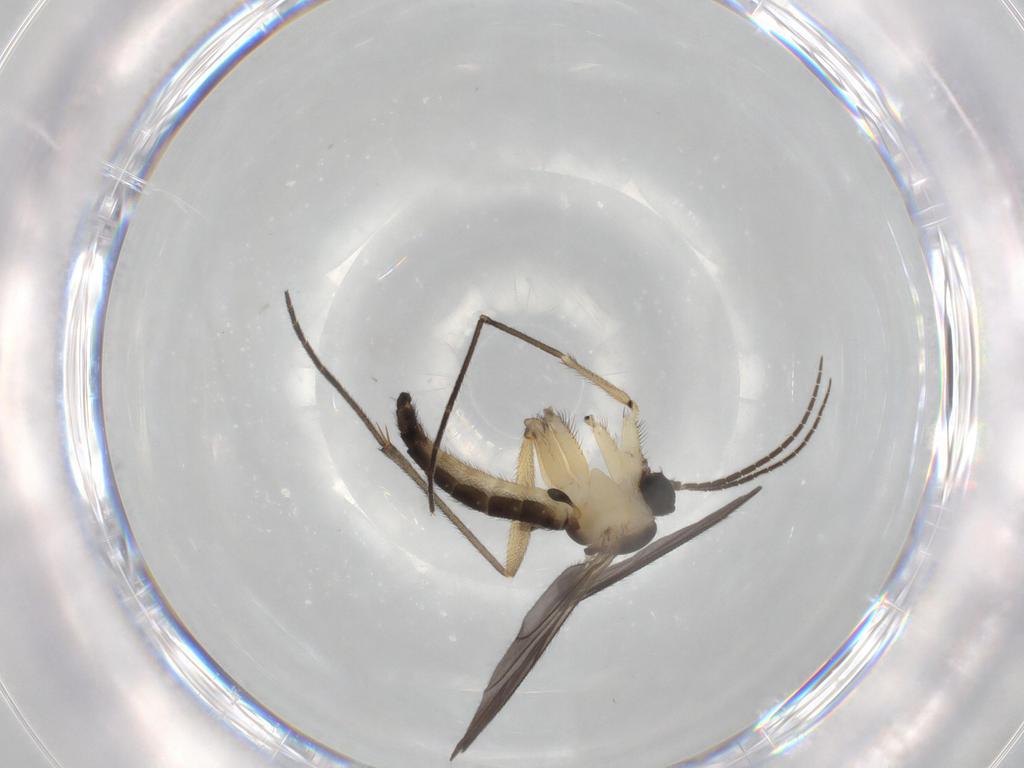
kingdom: Animalia
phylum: Arthropoda
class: Insecta
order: Diptera
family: Sciaridae
